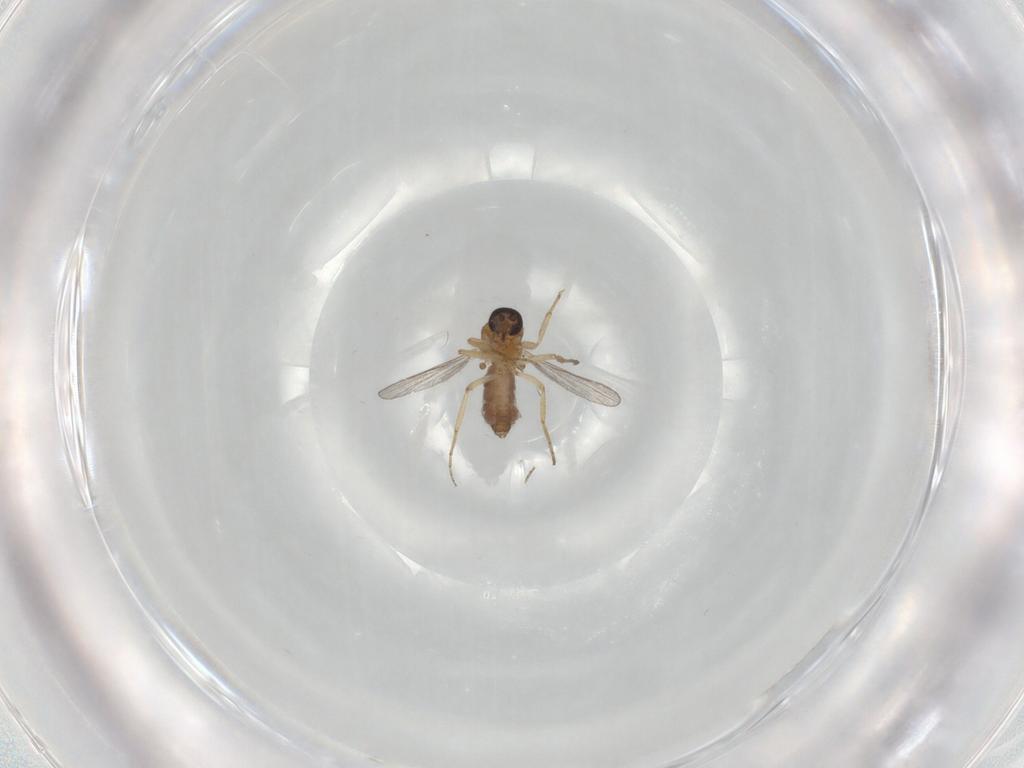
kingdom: Animalia
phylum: Arthropoda
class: Insecta
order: Diptera
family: Ceratopogonidae
